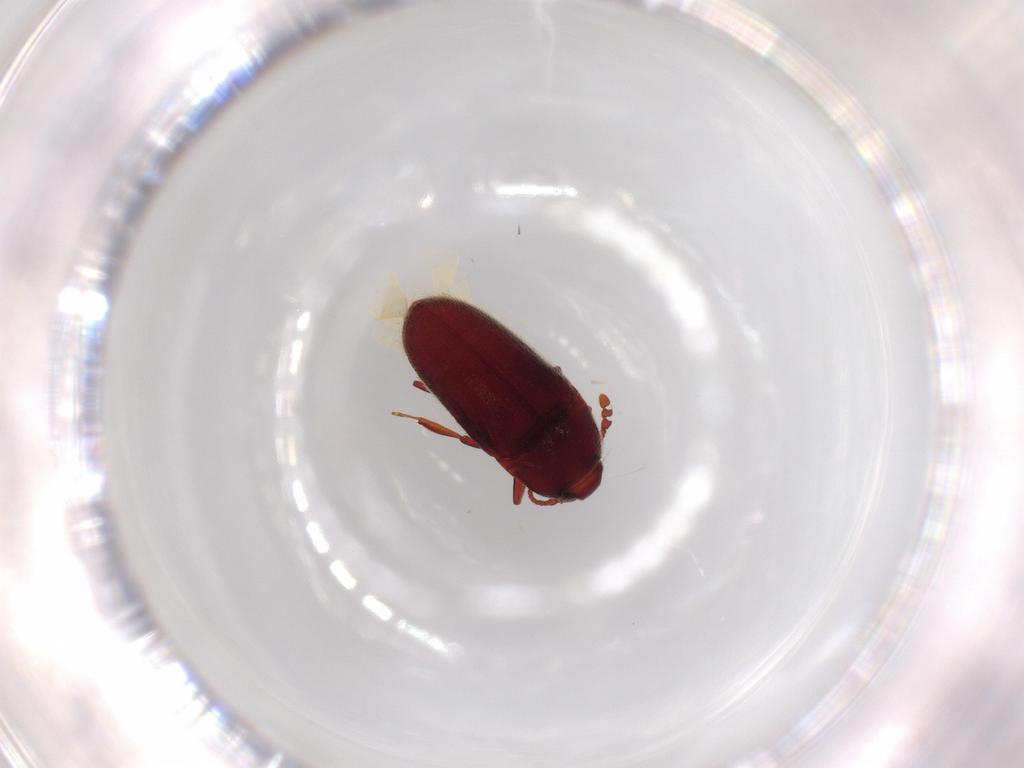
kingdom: Animalia
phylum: Arthropoda
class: Insecta
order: Coleoptera
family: Throscidae
